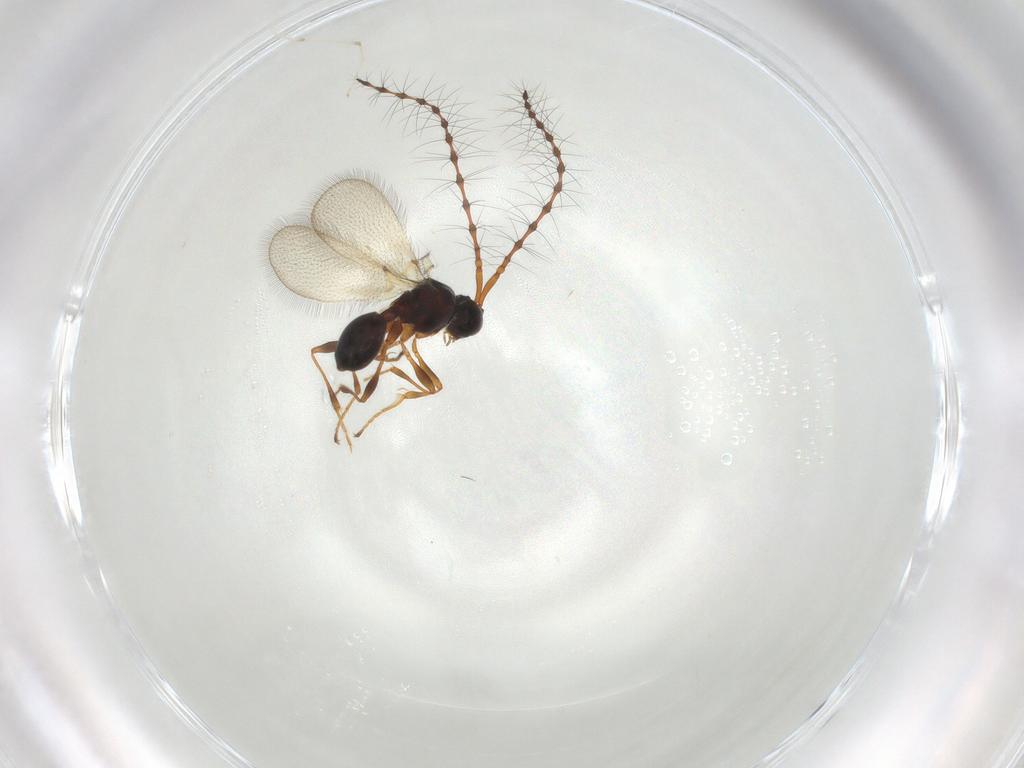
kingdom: Animalia
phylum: Arthropoda
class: Insecta
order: Hymenoptera
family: Diapriidae
